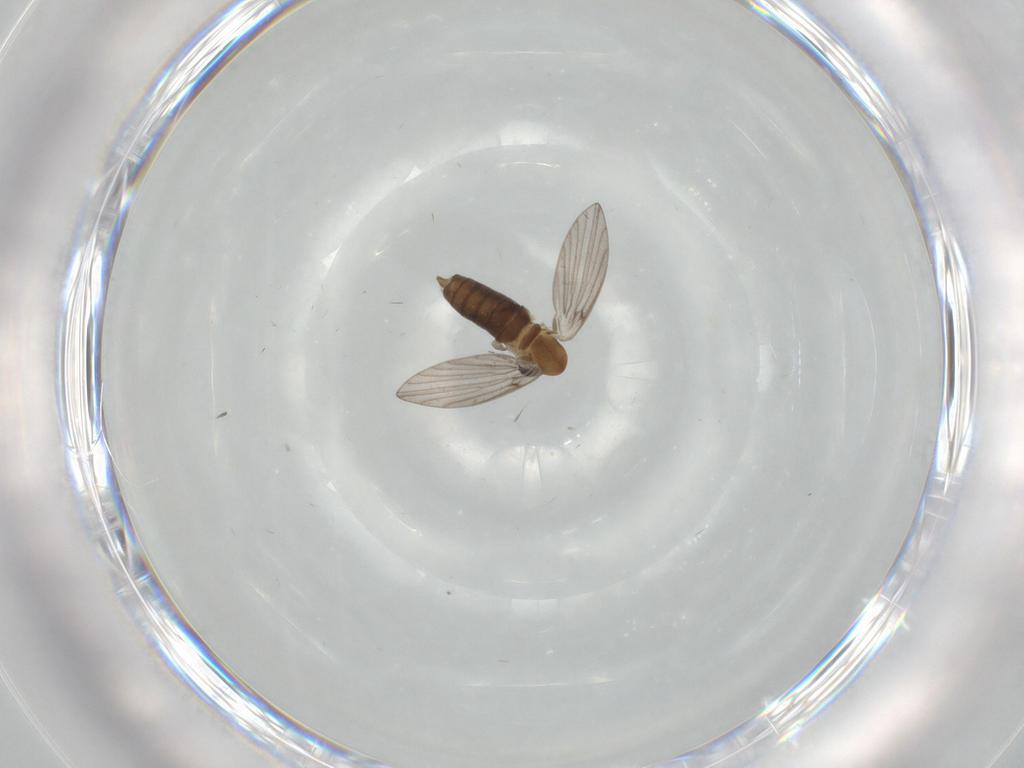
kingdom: Animalia
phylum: Arthropoda
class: Insecta
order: Diptera
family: Psychodidae
